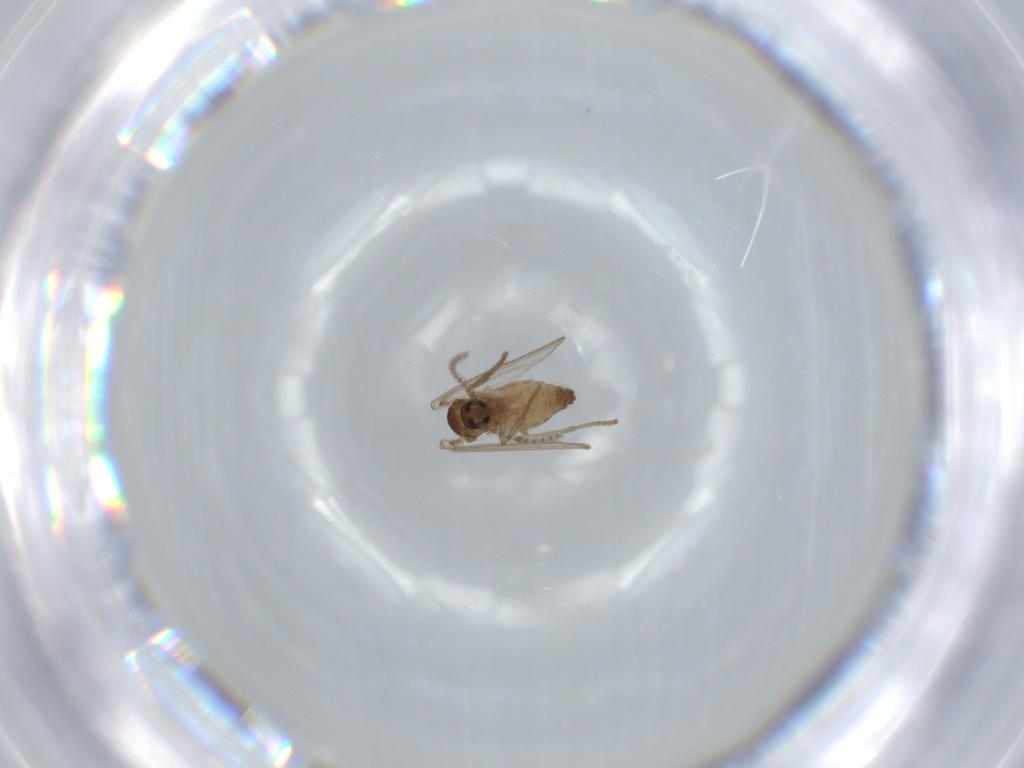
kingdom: Animalia
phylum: Arthropoda
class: Insecta
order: Diptera
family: Psychodidae
